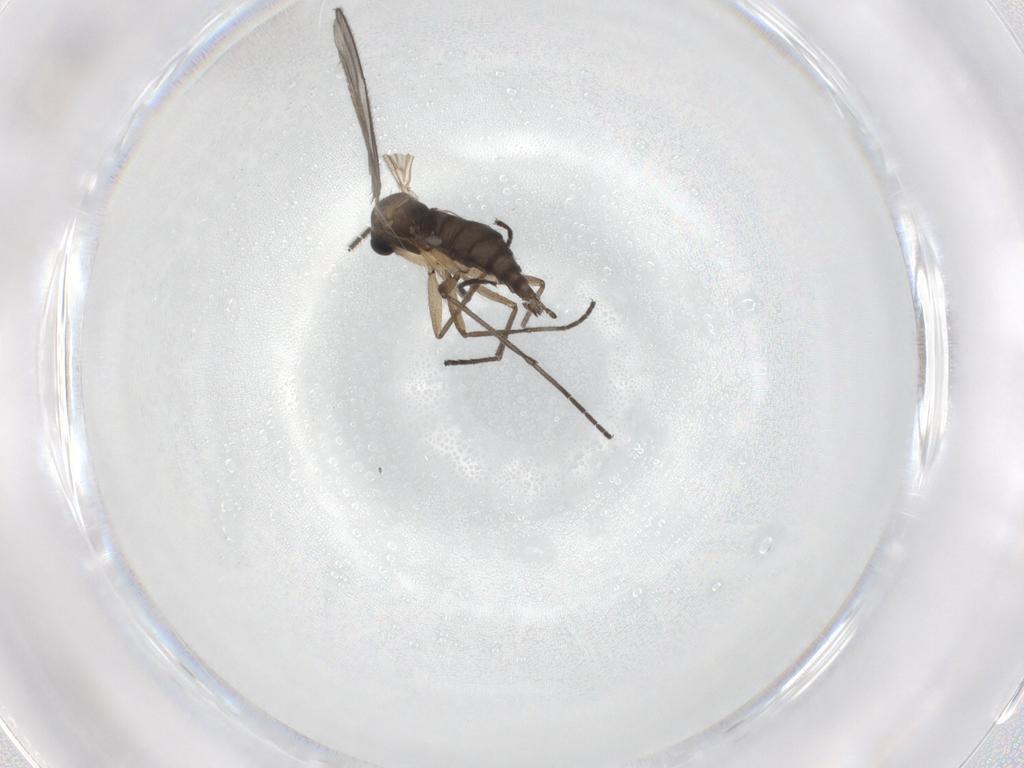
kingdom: Animalia
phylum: Arthropoda
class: Insecta
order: Diptera
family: Sciaridae
